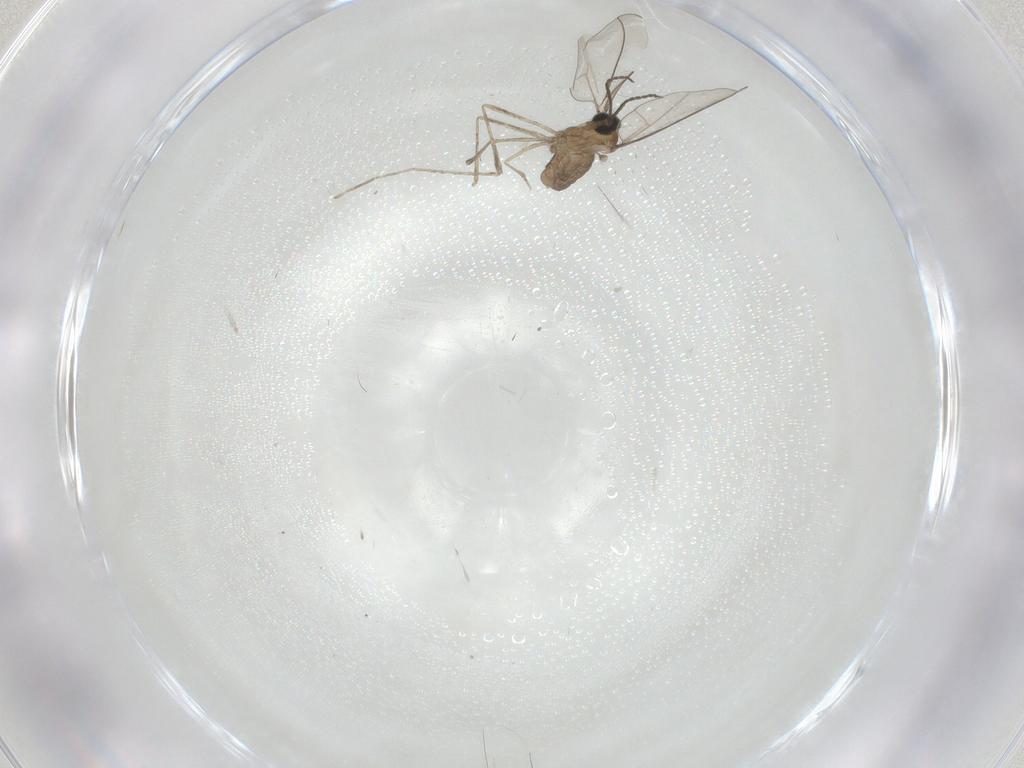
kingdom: Animalia
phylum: Arthropoda
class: Insecta
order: Diptera
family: Cecidomyiidae
